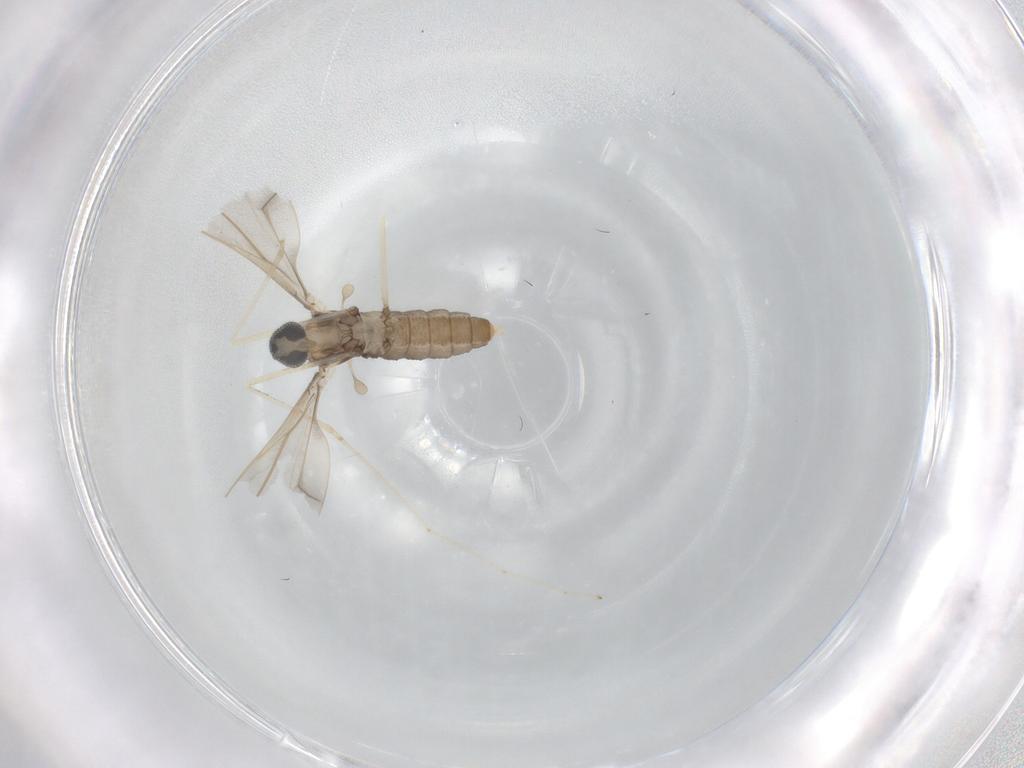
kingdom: Animalia
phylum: Arthropoda
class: Insecta
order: Diptera
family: Cecidomyiidae
